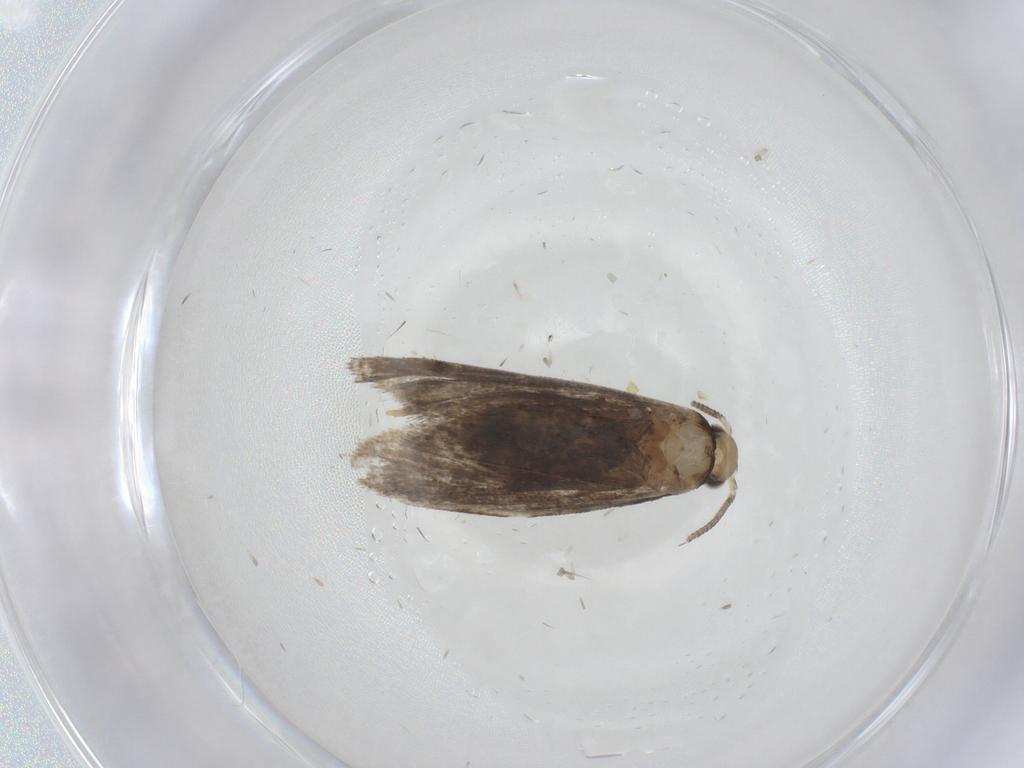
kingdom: Animalia
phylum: Arthropoda
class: Insecta
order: Lepidoptera
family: Dryadaulidae
